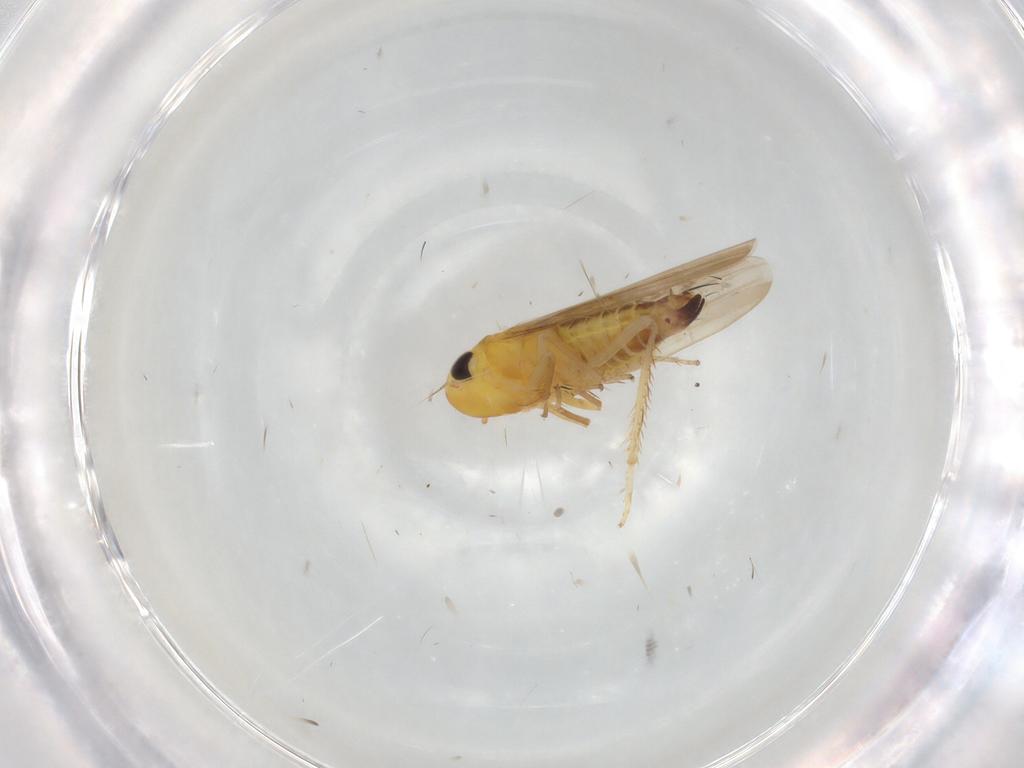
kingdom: Animalia
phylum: Arthropoda
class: Insecta
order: Hemiptera
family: Cicadellidae
